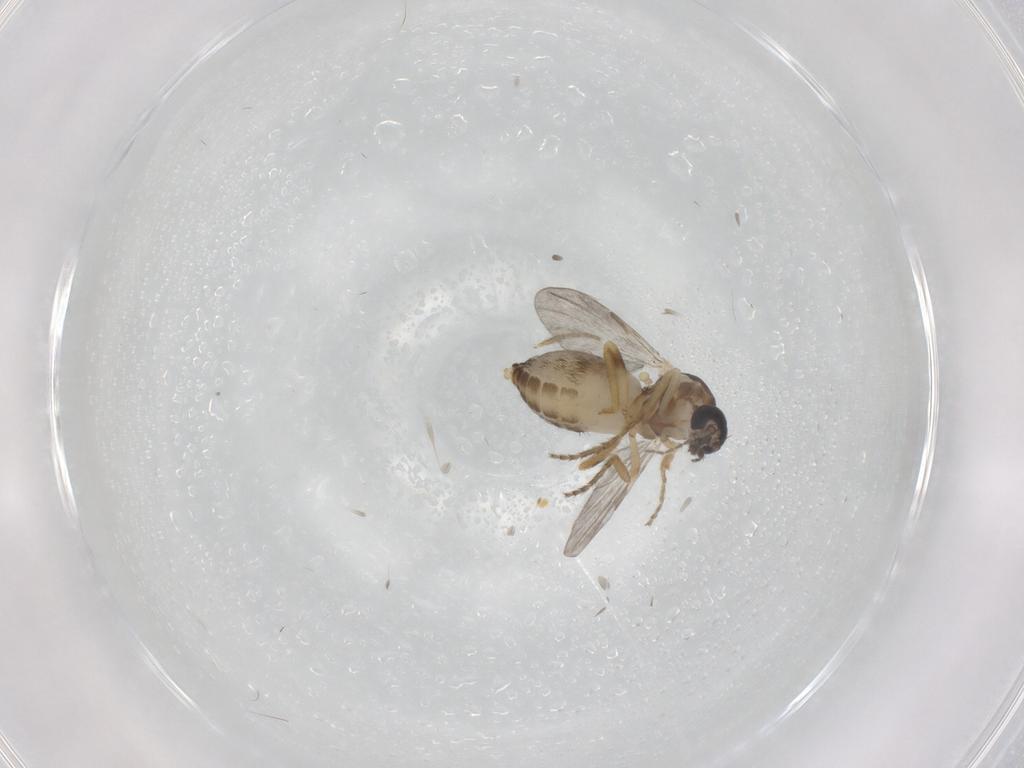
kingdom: Animalia
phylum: Arthropoda
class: Insecta
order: Diptera
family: Ceratopogonidae
